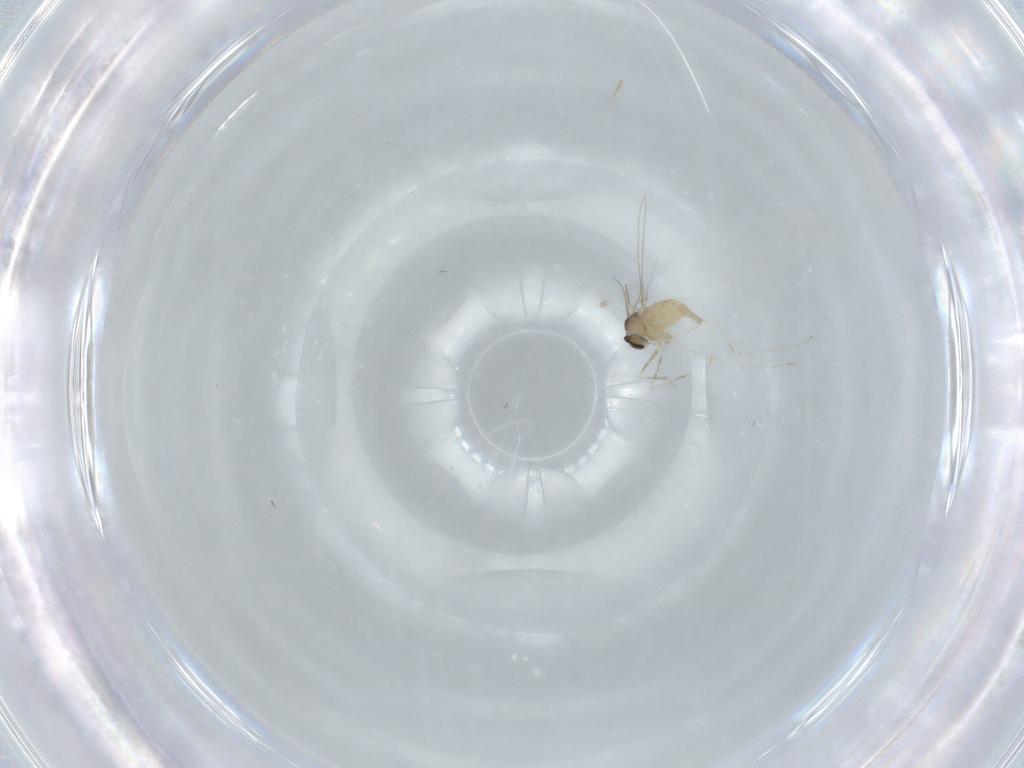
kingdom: Animalia
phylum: Arthropoda
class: Insecta
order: Diptera
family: Cecidomyiidae
